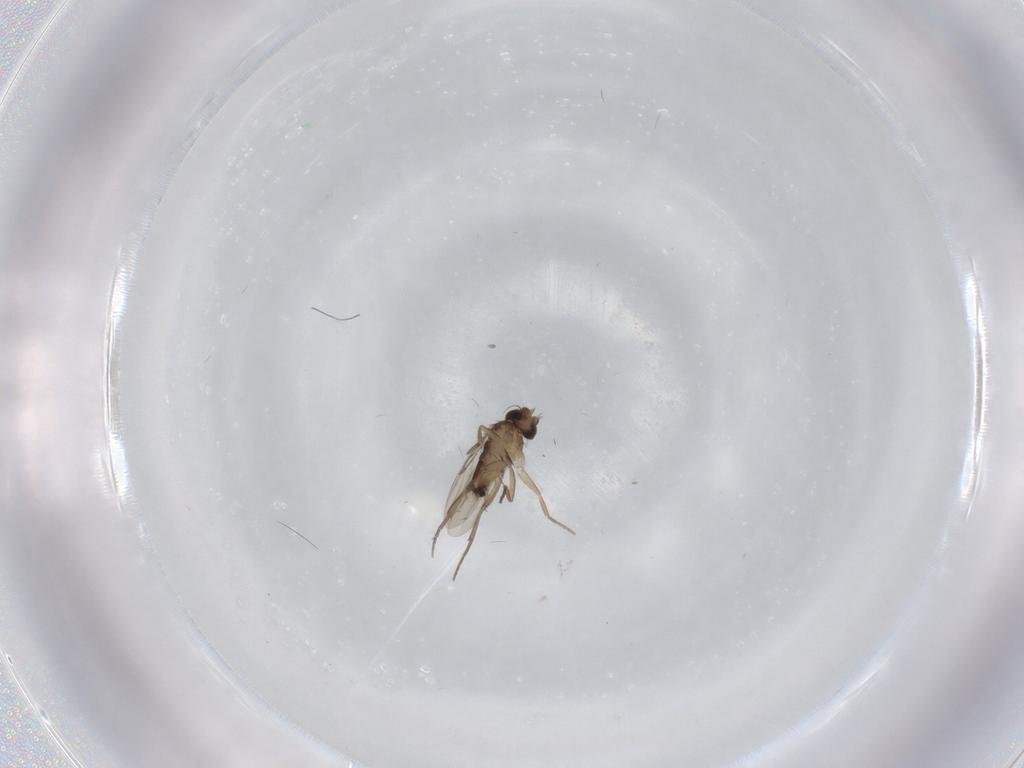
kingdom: Animalia
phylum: Arthropoda
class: Insecta
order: Diptera
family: Phoridae
